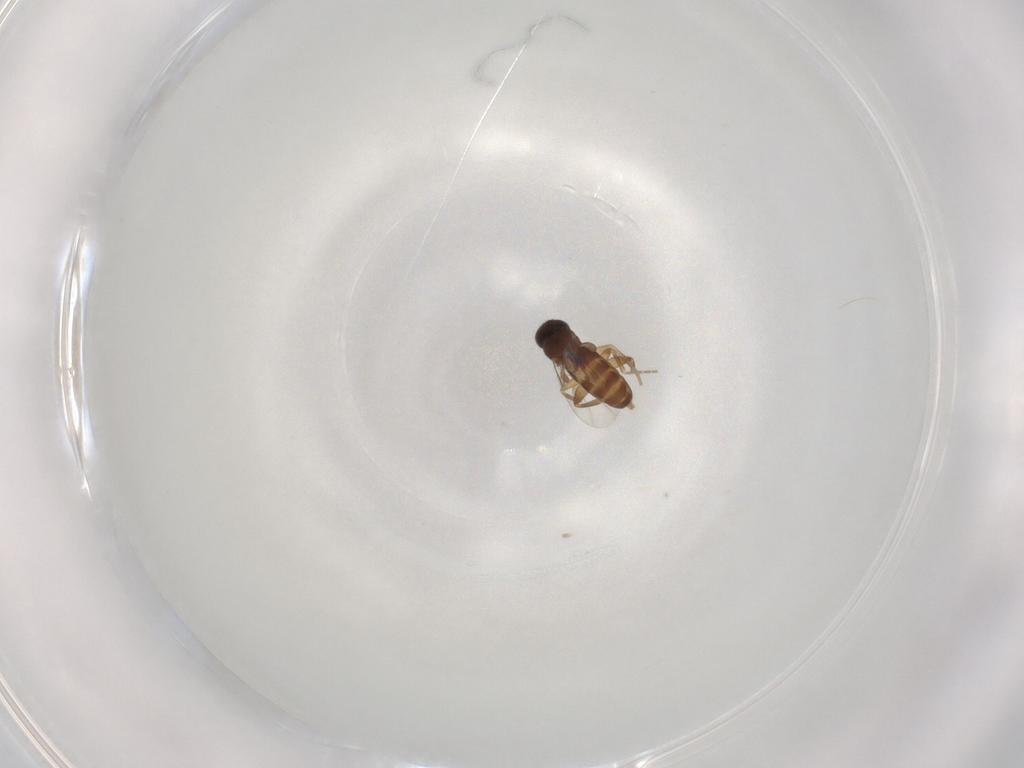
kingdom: Animalia
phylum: Arthropoda
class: Insecta
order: Diptera
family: Phoridae
